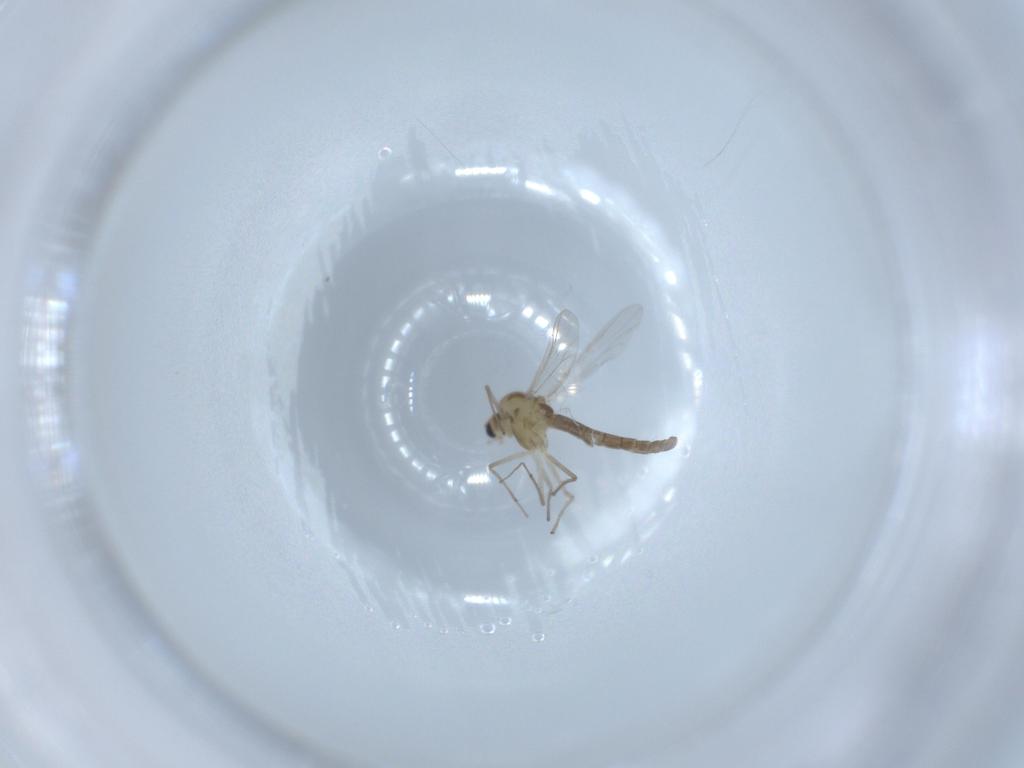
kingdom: Animalia
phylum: Arthropoda
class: Insecta
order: Diptera
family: Chironomidae
